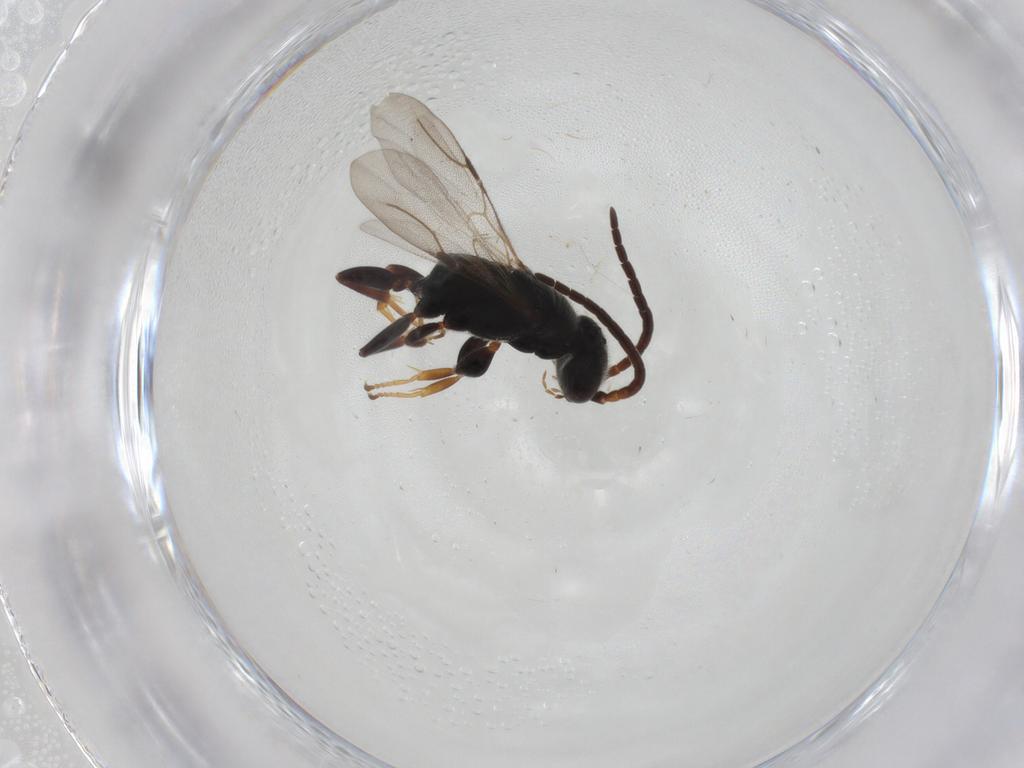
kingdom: Animalia
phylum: Arthropoda
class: Insecta
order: Hymenoptera
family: Bethylidae
